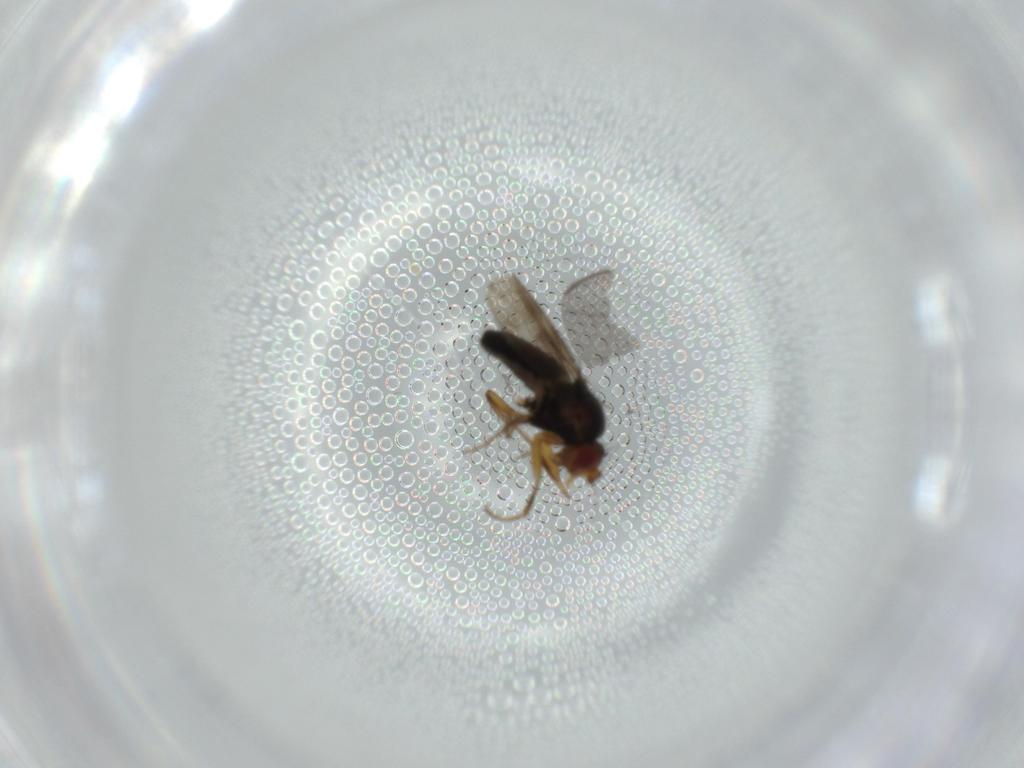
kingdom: Animalia
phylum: Arthropoda
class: Insecta
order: Diptera
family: Sphaeroceridae
